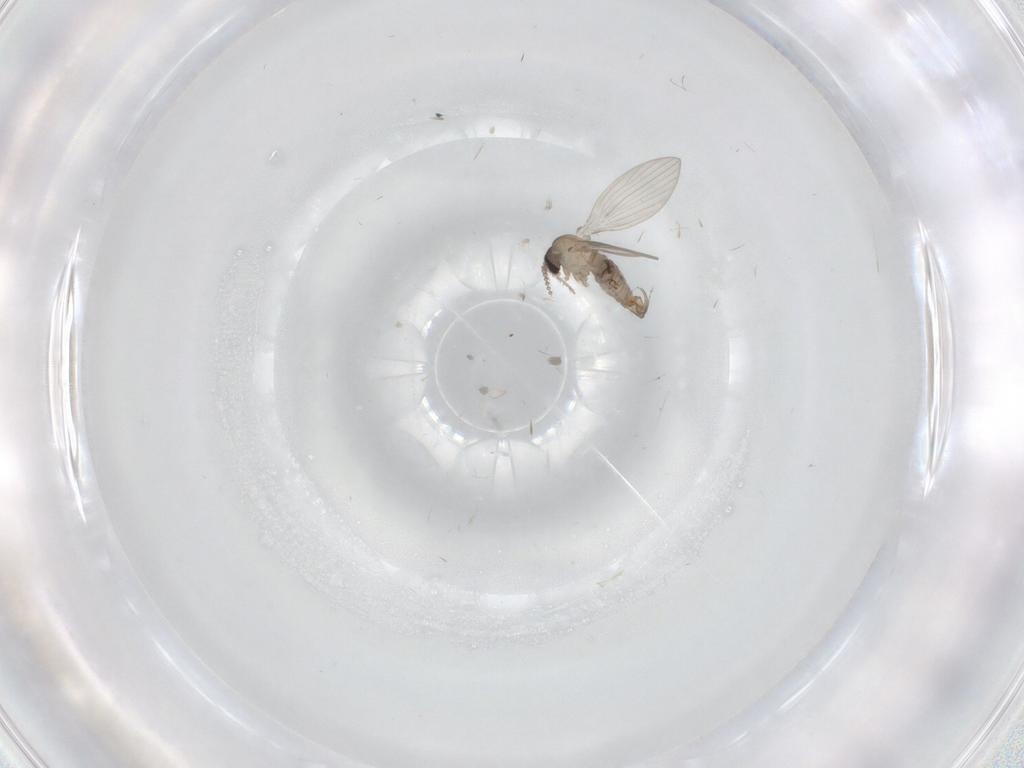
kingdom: Animalia
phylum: Arthropoda
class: Insecta
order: Diptera
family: Psychodidae
